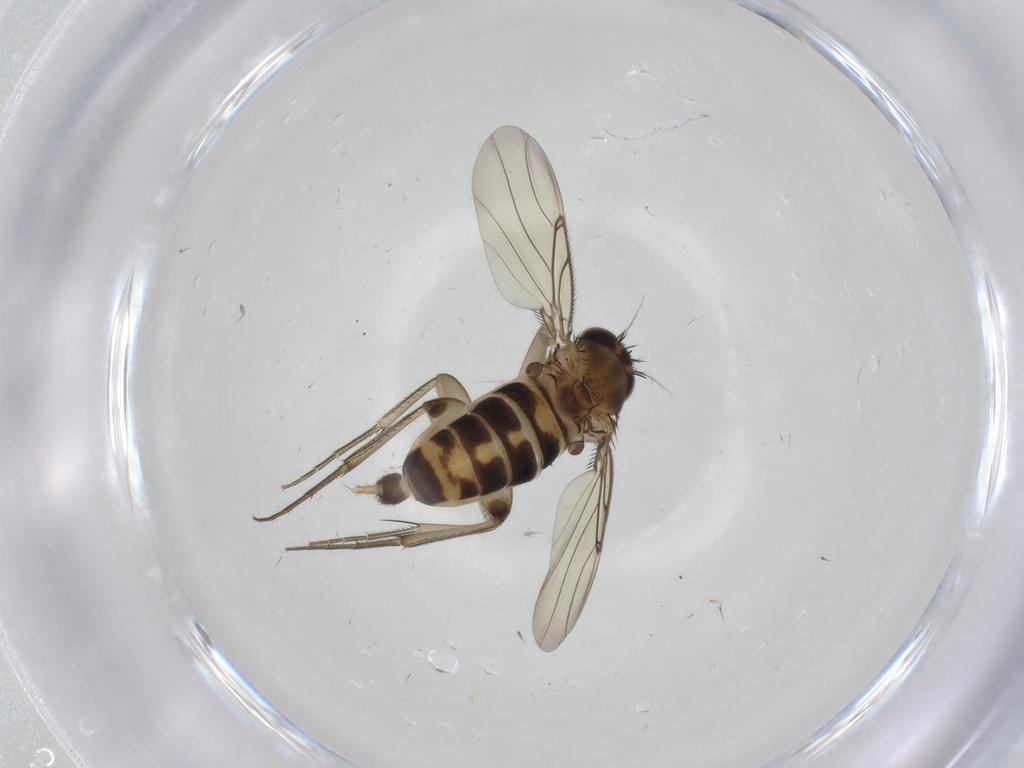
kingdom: Animalia
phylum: Arthropoda
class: Insecta
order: Diptera
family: Phoridae
